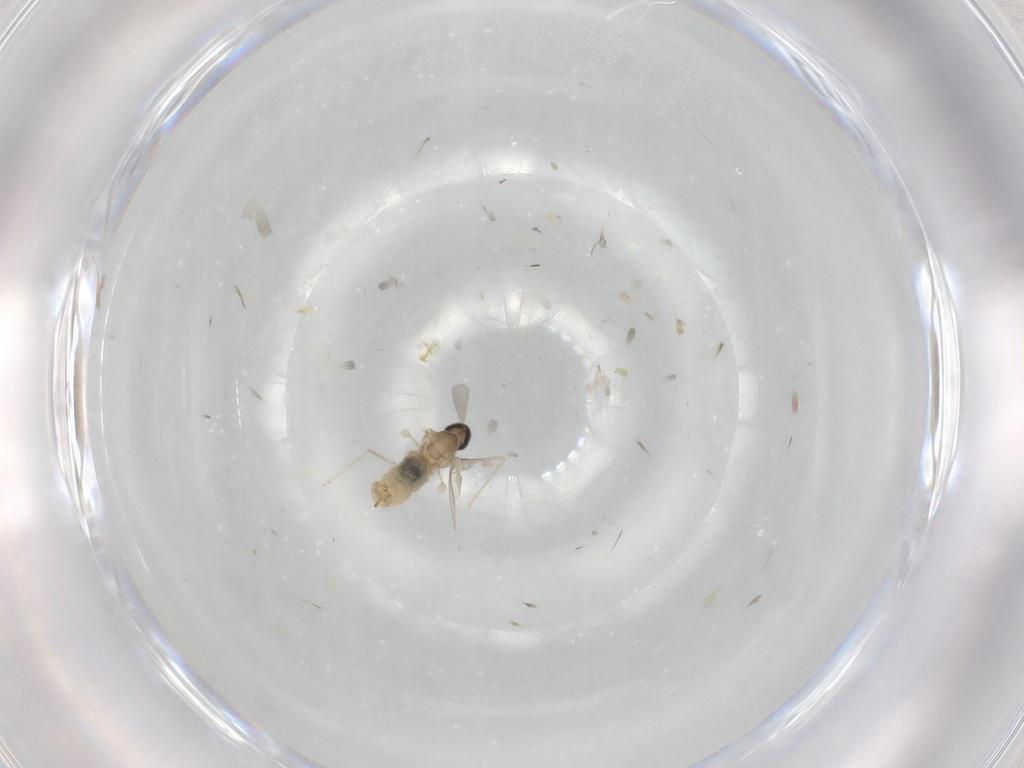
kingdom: Animalia
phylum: Arthropoda
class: Insecta
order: Diptera
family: Cecidomyiidae
